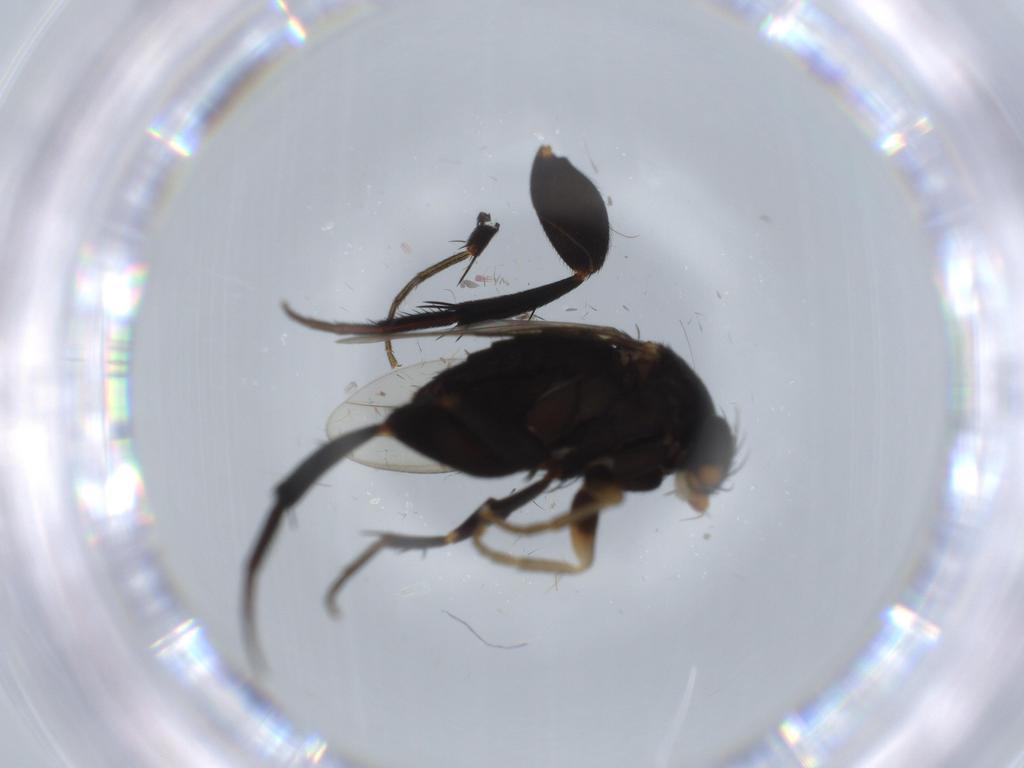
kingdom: Animalia
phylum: Arthropoda
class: Insecta
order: Diptera
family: Phoridae
